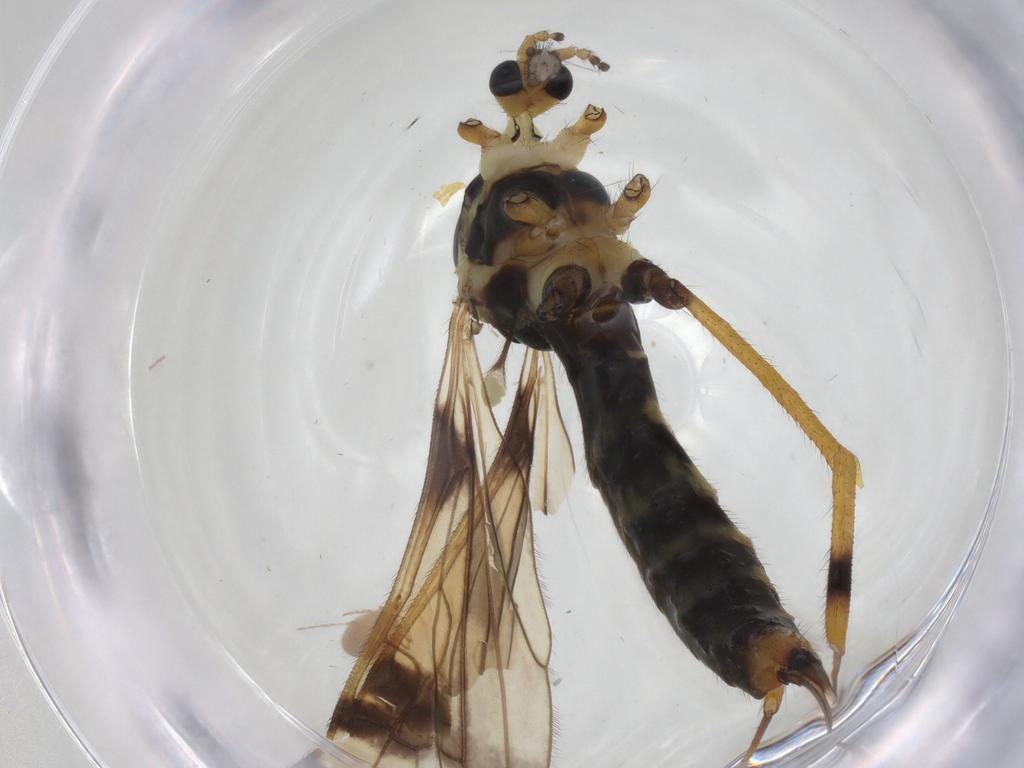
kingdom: Animalia
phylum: Arthropoda
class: Insecta
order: Diptera
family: Limoniidae
